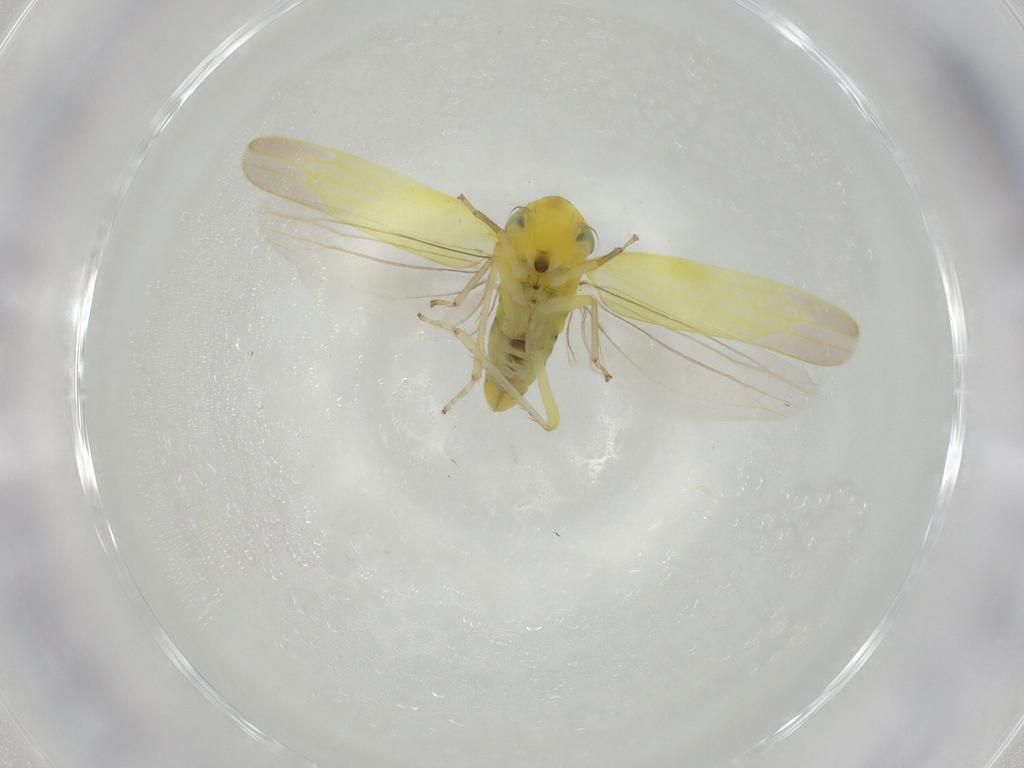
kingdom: Animalia
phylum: Arthropoda
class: Insecta
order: Hemiptera
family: Cicadellidae
